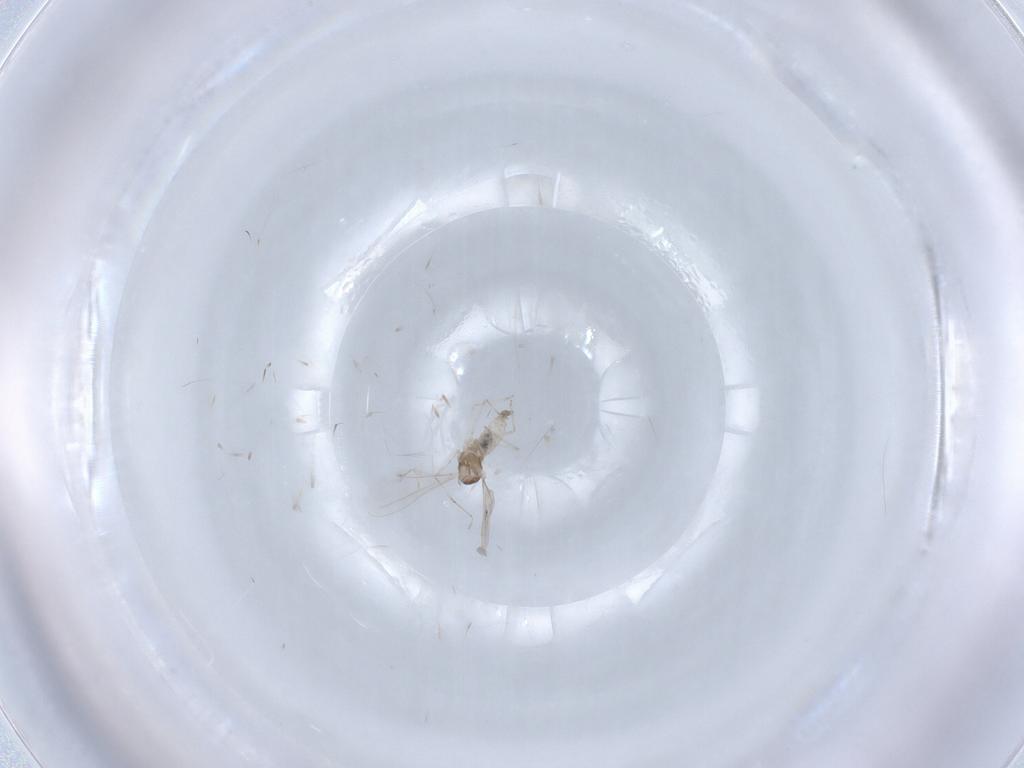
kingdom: Animalia
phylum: Arthropoda
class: Insecta
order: Diptera
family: Cecidomyiidae
